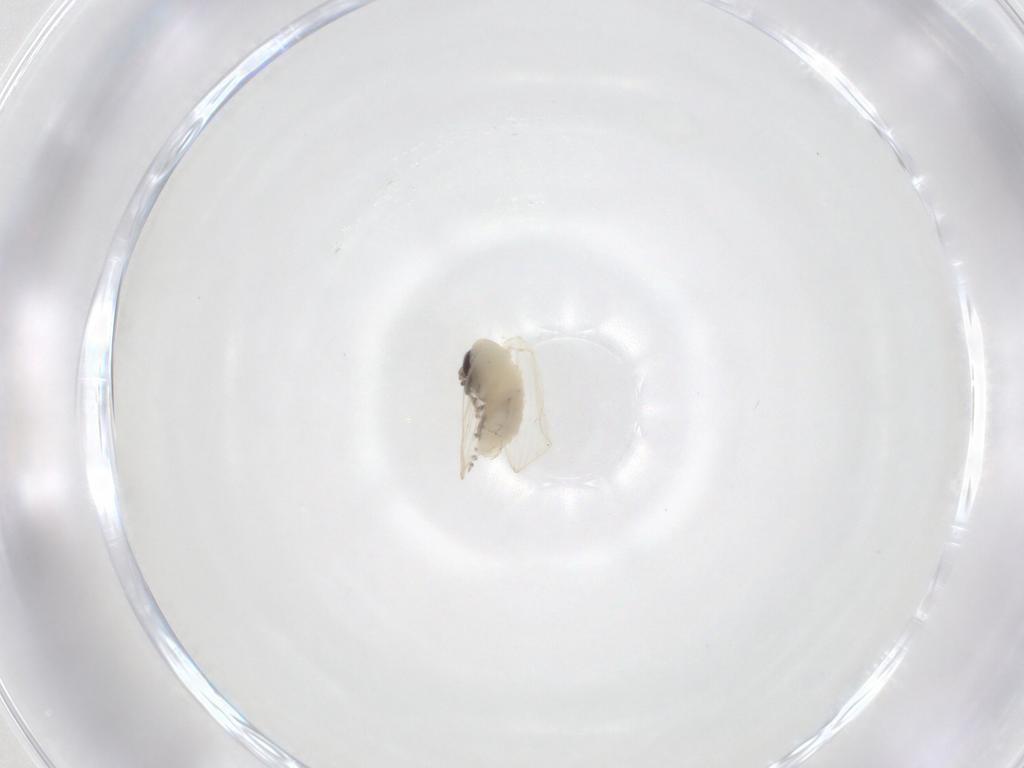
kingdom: Animalia
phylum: Arthropoda
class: Insecta
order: Diptera
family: Psychodidae
